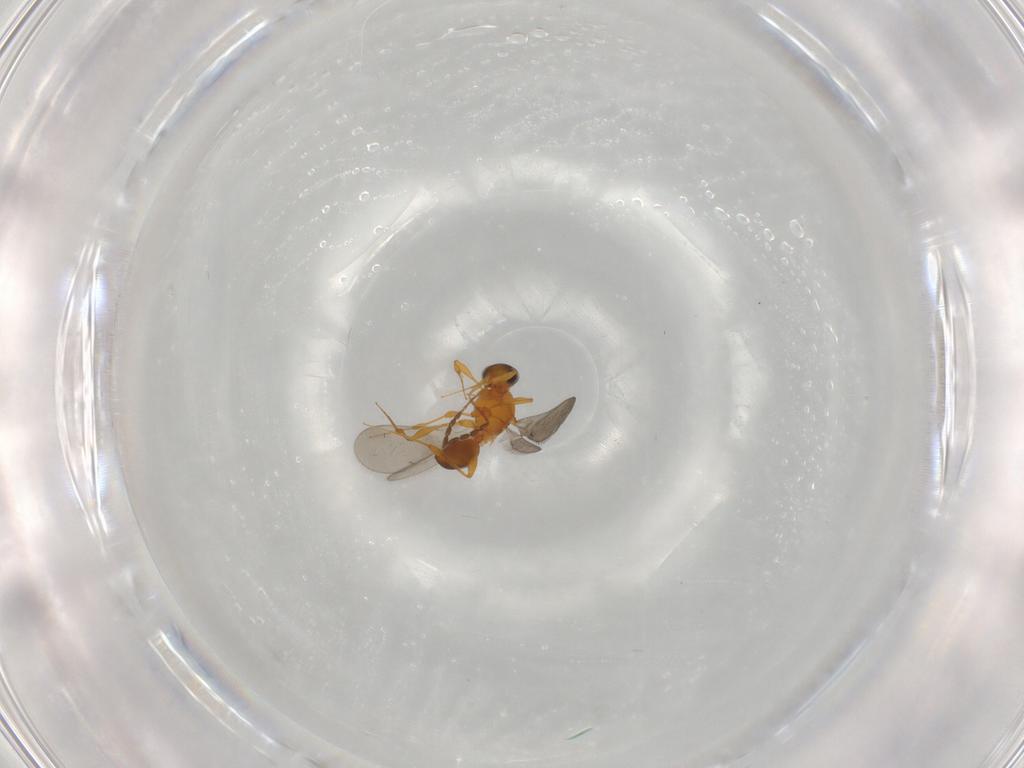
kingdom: Animalia
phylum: Arthropoda
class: Insecta
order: Hymenoptera
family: Platygastridae
